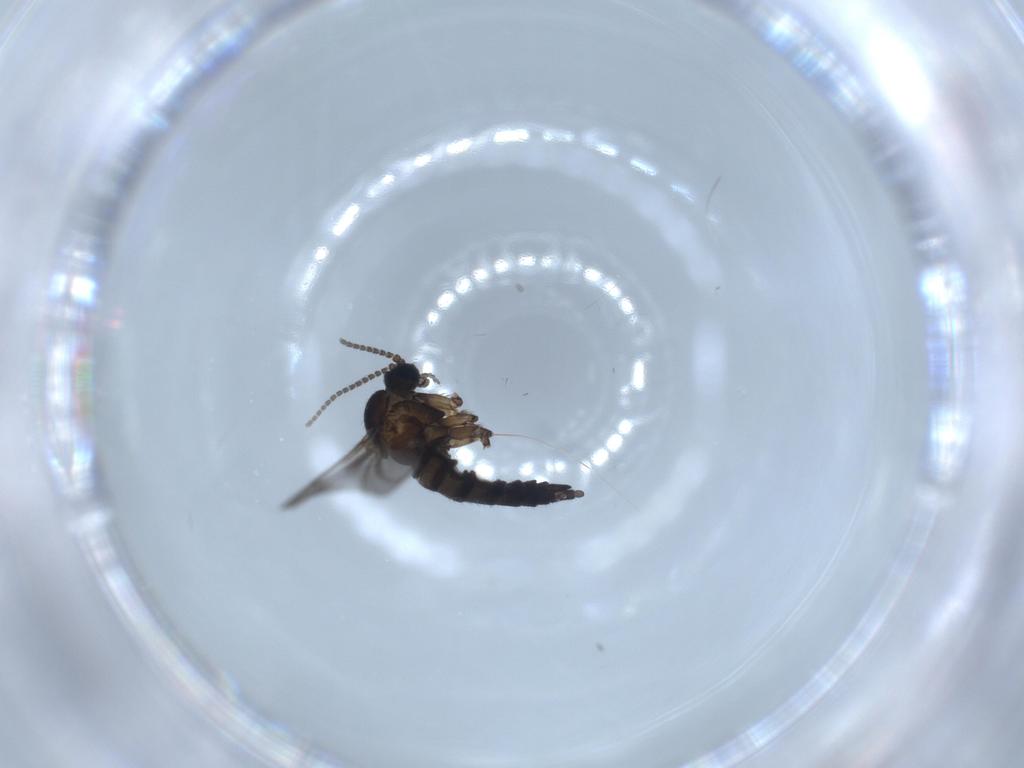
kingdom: Animalia
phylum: Arthropoda
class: Insecta
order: Diptera
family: Sciaridae
